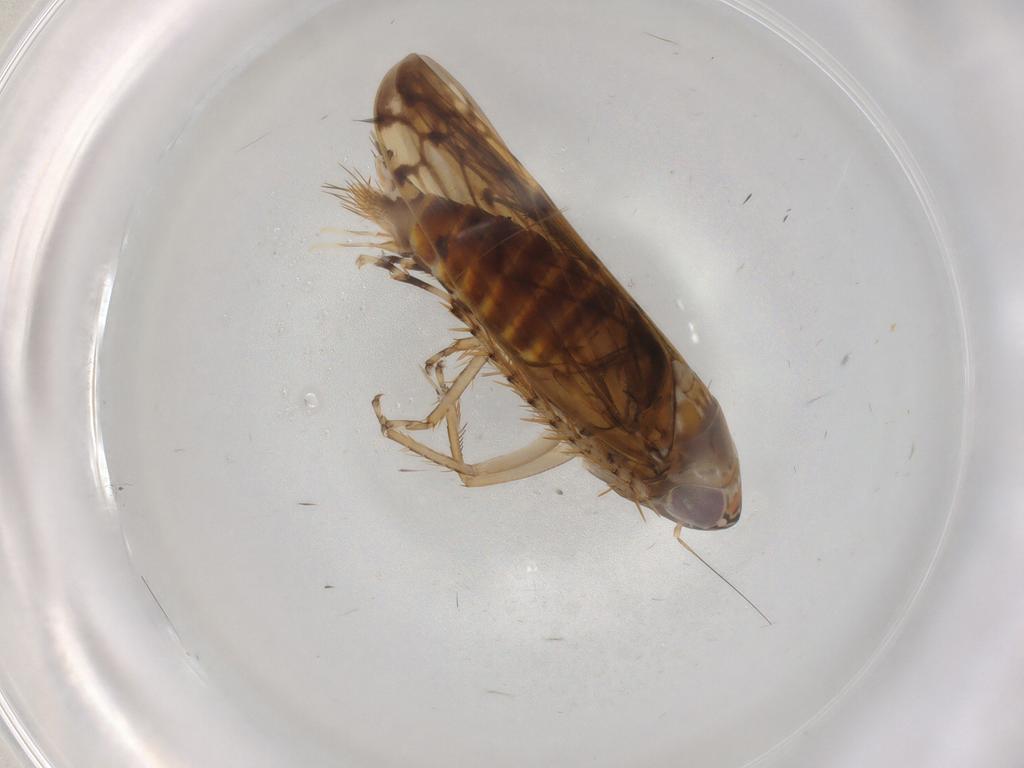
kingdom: Animalia
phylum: Arthropoda
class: Insecta
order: Hemiptera
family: Cicadellidae
